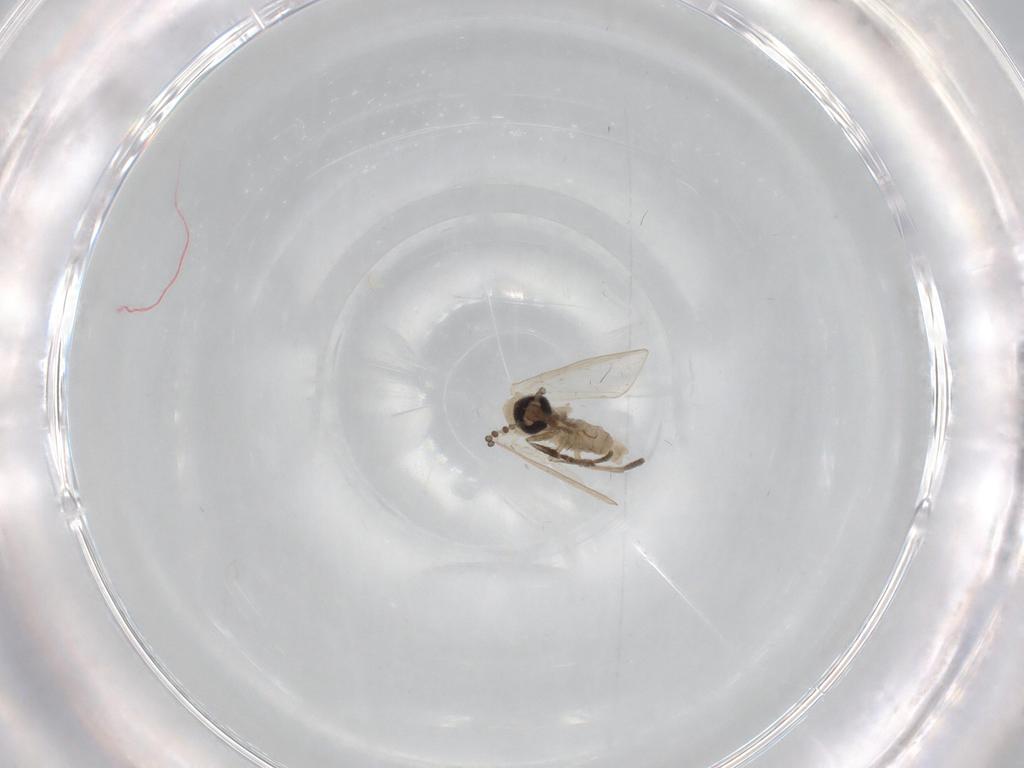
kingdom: Animalia
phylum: Arthropoda
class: Insecta
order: Diptera
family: Psychodidae
